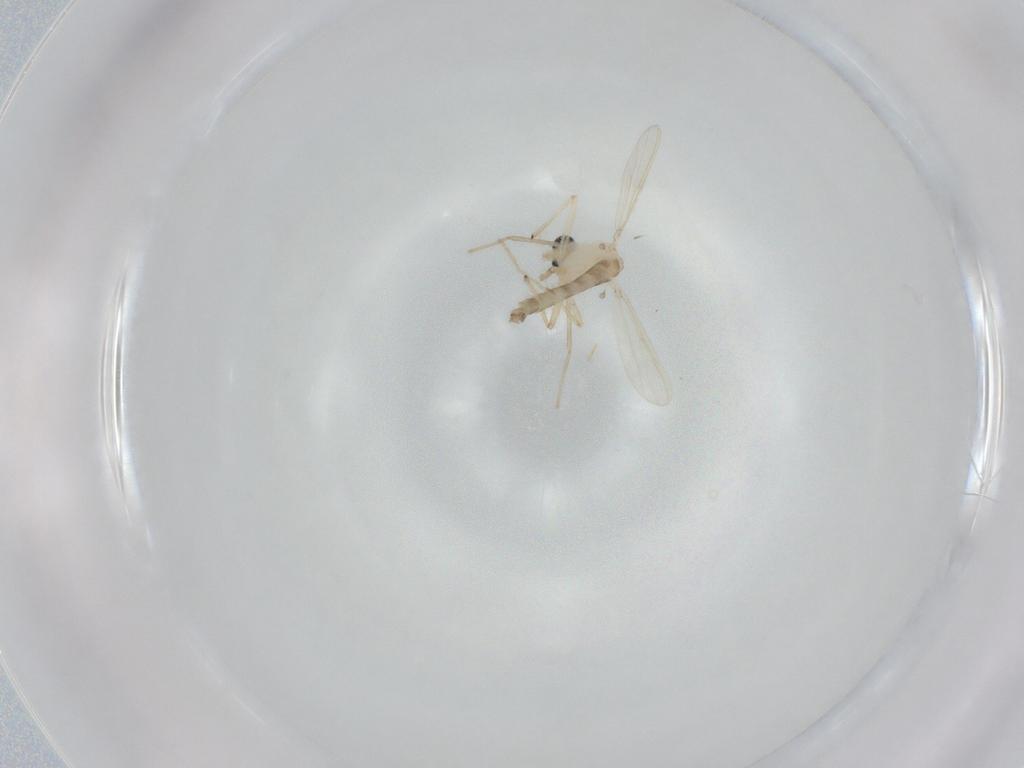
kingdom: Animalia
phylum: Arthropoda
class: Insecta
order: Diptera
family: Chironomidae
